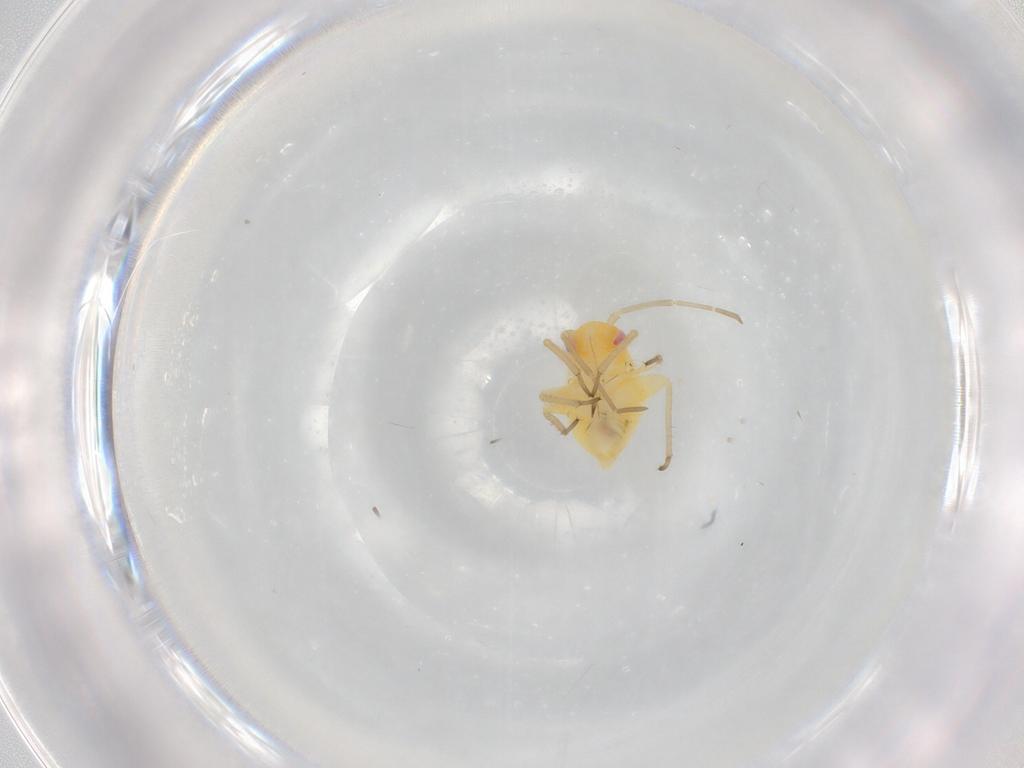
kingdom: Animalia
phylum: Arthropoda
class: Insecta
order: Hemiptera
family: Miridae
